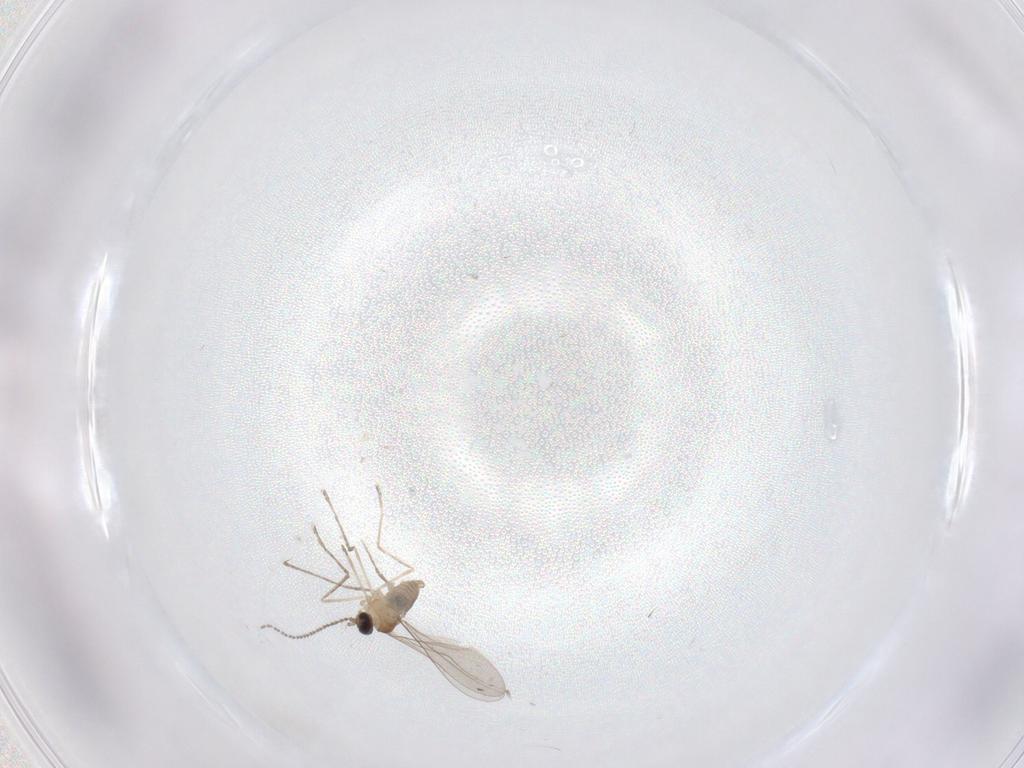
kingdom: Animalia
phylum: Arthropoda
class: Insecta
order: Diptera
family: Cecidomyiidae
